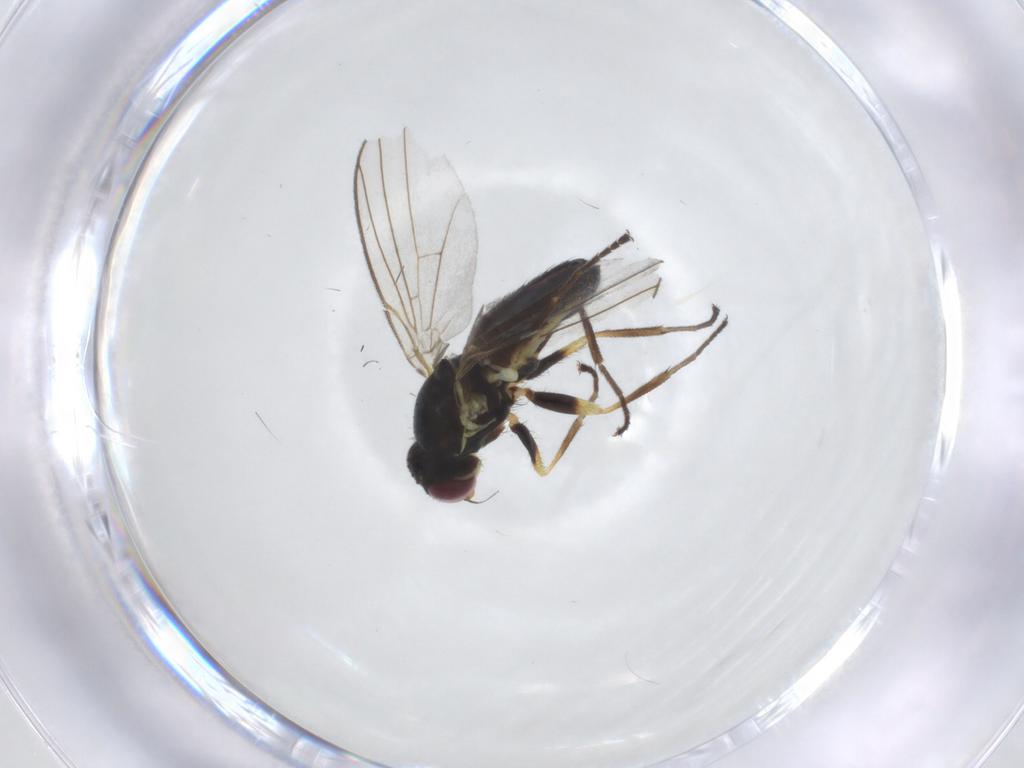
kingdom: Animalia
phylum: Arthropoda
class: Insecta
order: Diptera
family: Agromyzidae
